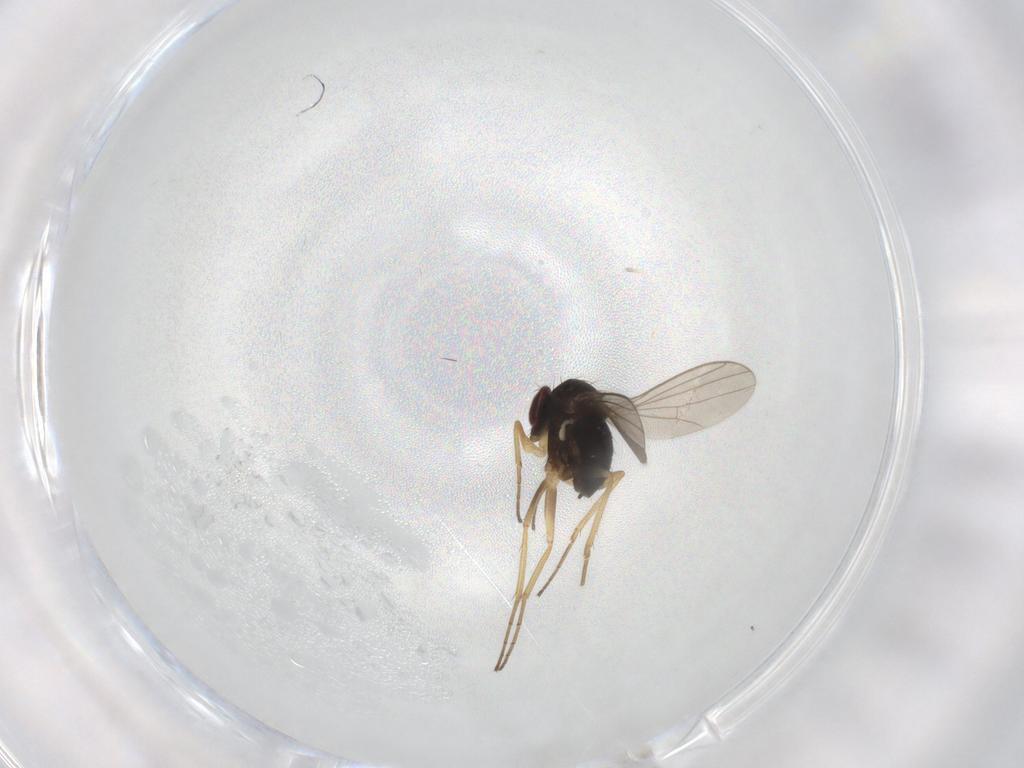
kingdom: Animalia
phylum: Arthropoda
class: Insecta
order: Diptera
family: Dolichopodidae
